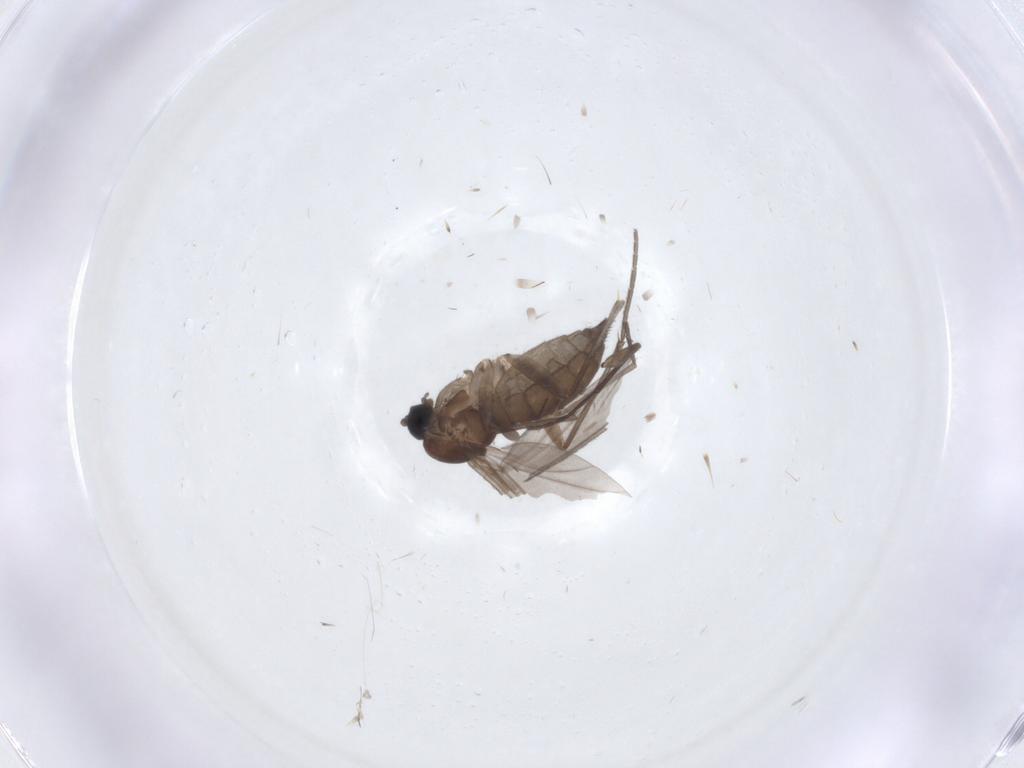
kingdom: Animalia
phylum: Arthropoda
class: Insecta
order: Diptera
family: Sciaridae
